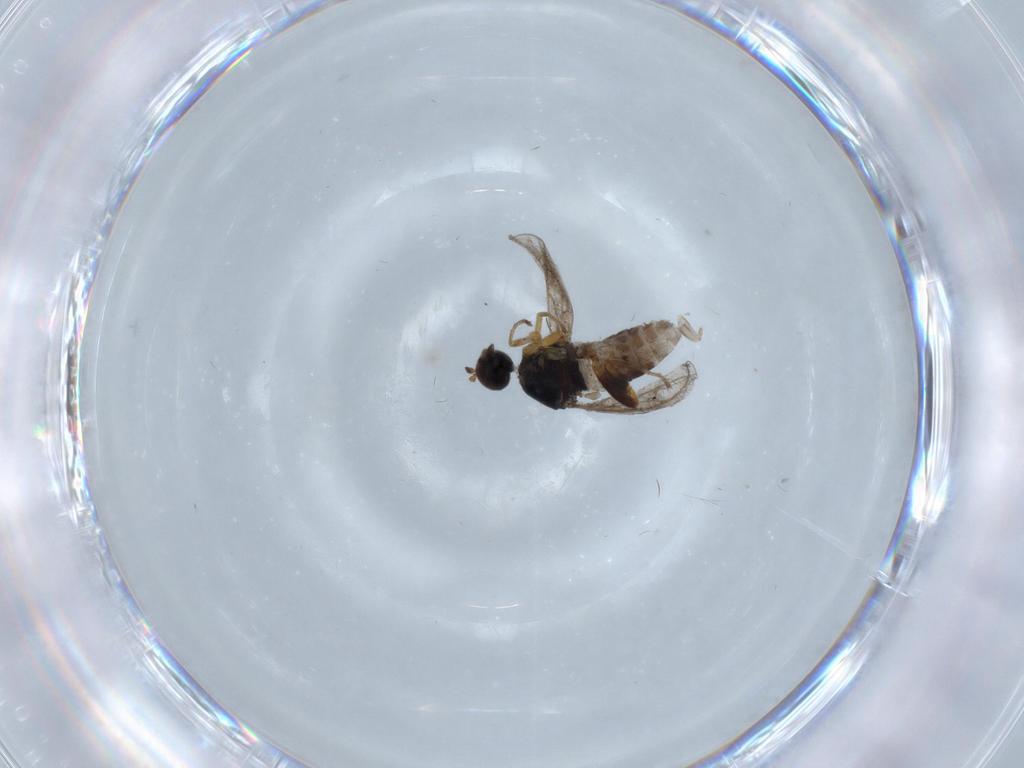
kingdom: Animalia
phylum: Arthropoda
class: Insecta
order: Diptera
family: Hybotidae
